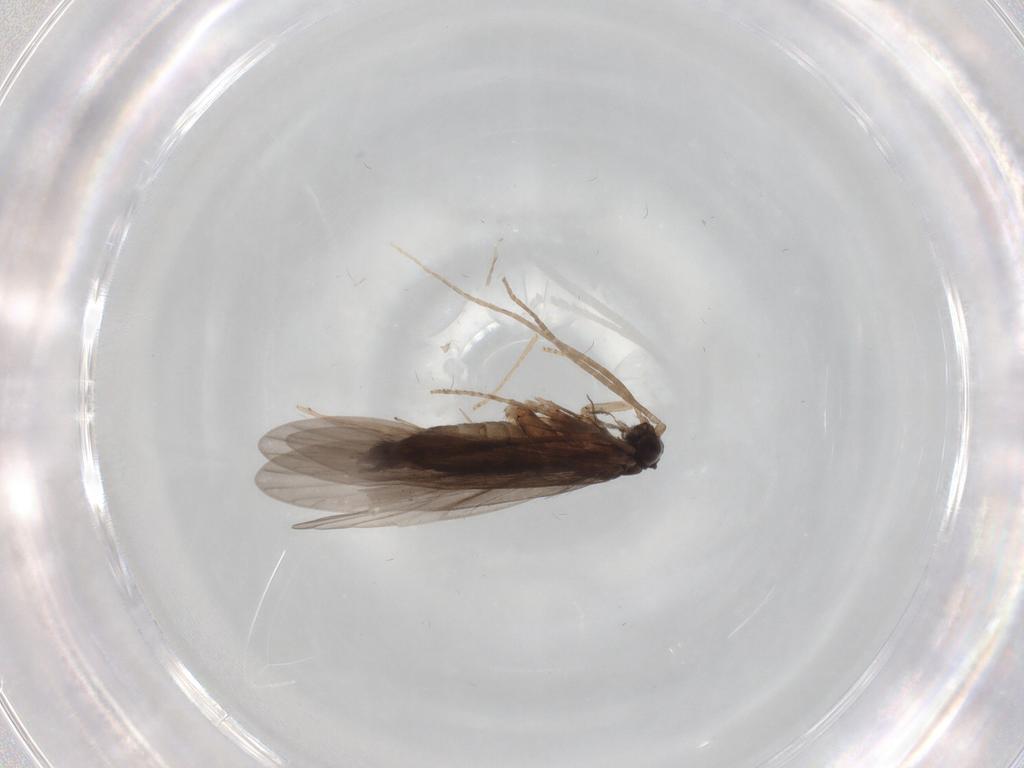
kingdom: Animalia
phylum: Arthropoda
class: Insecta
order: Trichoptera
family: Xiphocentronidae
